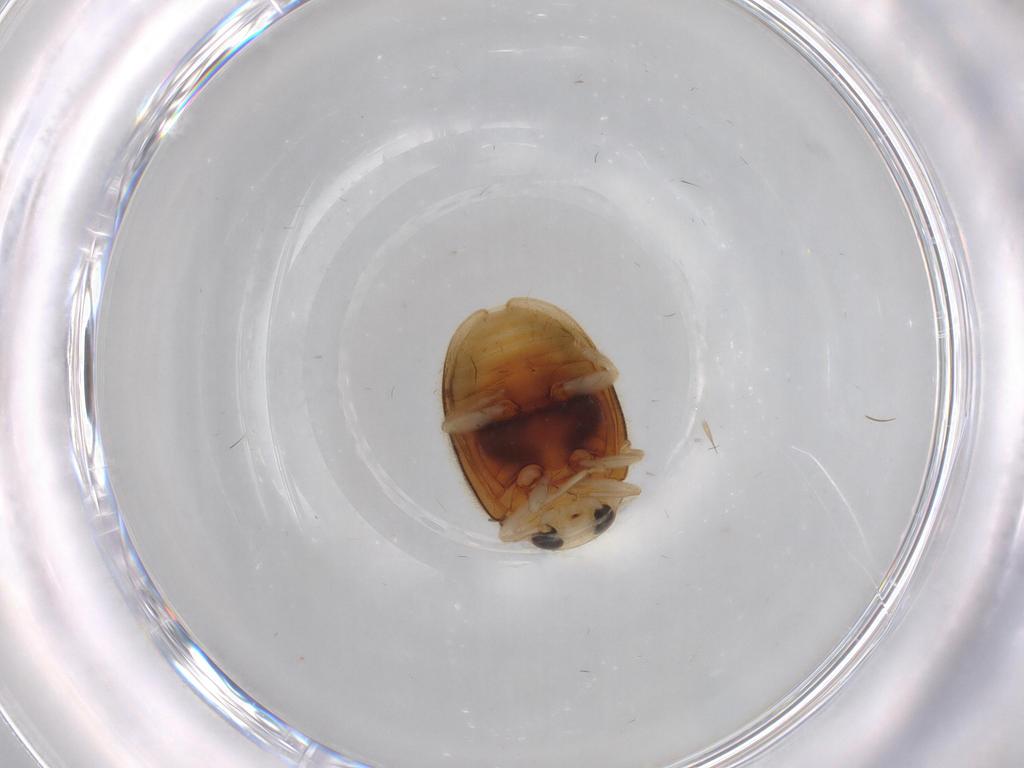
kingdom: Animalia
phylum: Arthropoda
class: Insecta
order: Coleoptera
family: Coccinellidae
